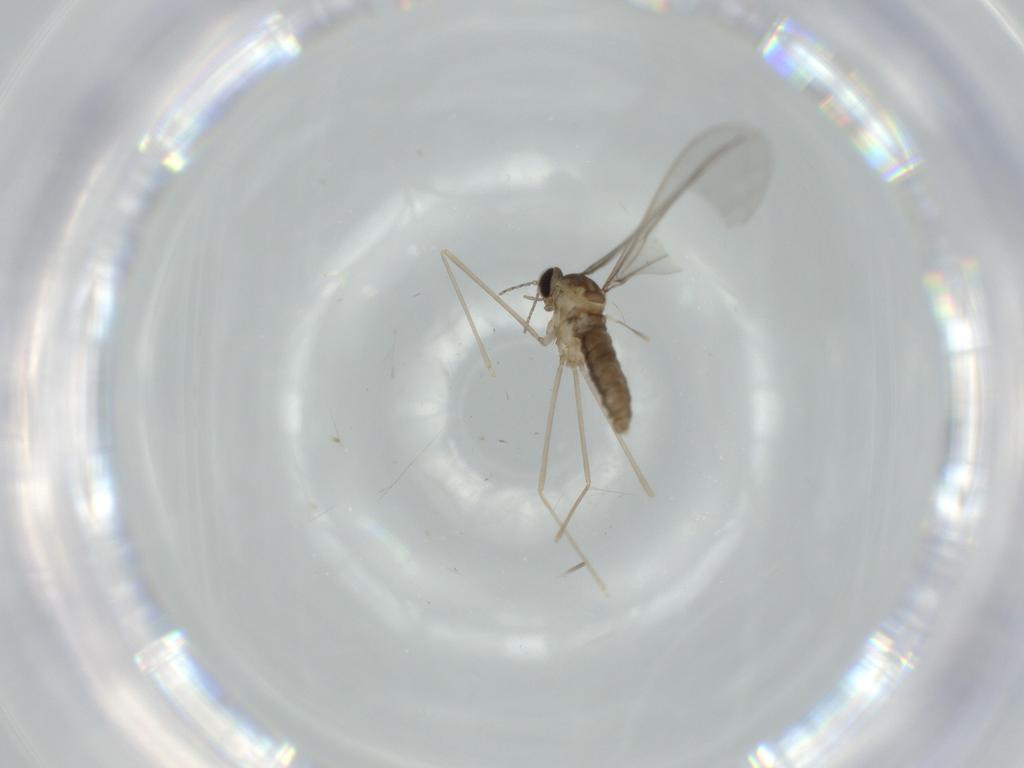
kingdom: Animalia
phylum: Arthropoda
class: Insecta
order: Diptera
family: Cecidomyiidae
